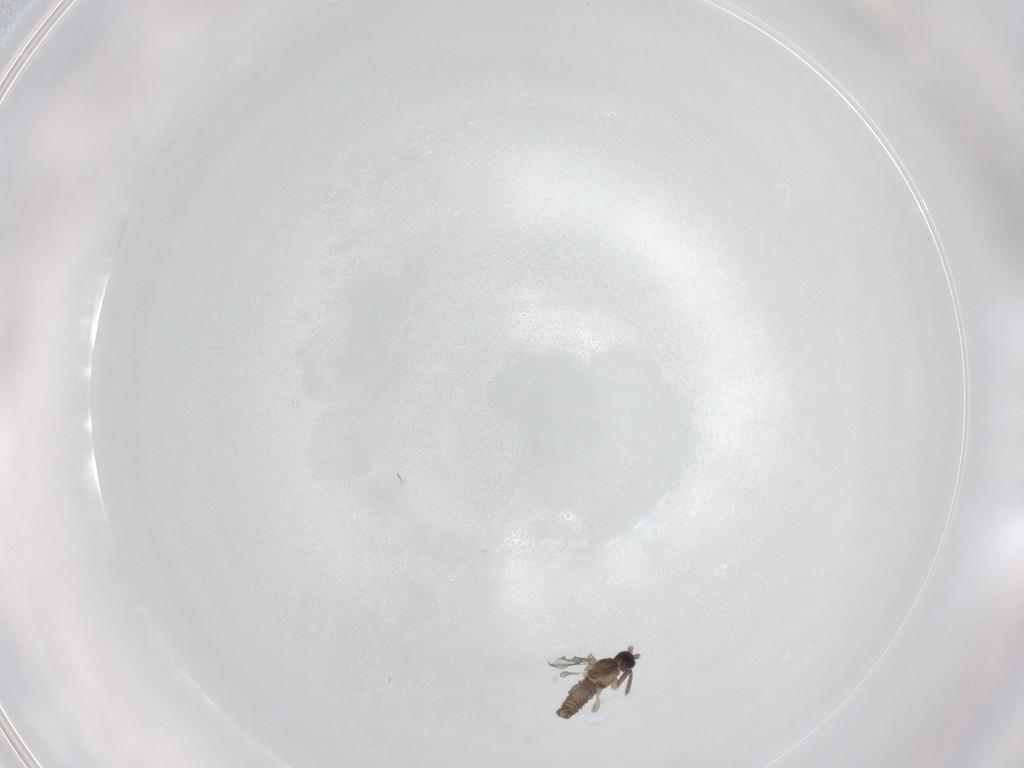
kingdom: Animalia
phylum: Arthropoda
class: Insecta
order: Diptera
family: Cecidomyiidae
